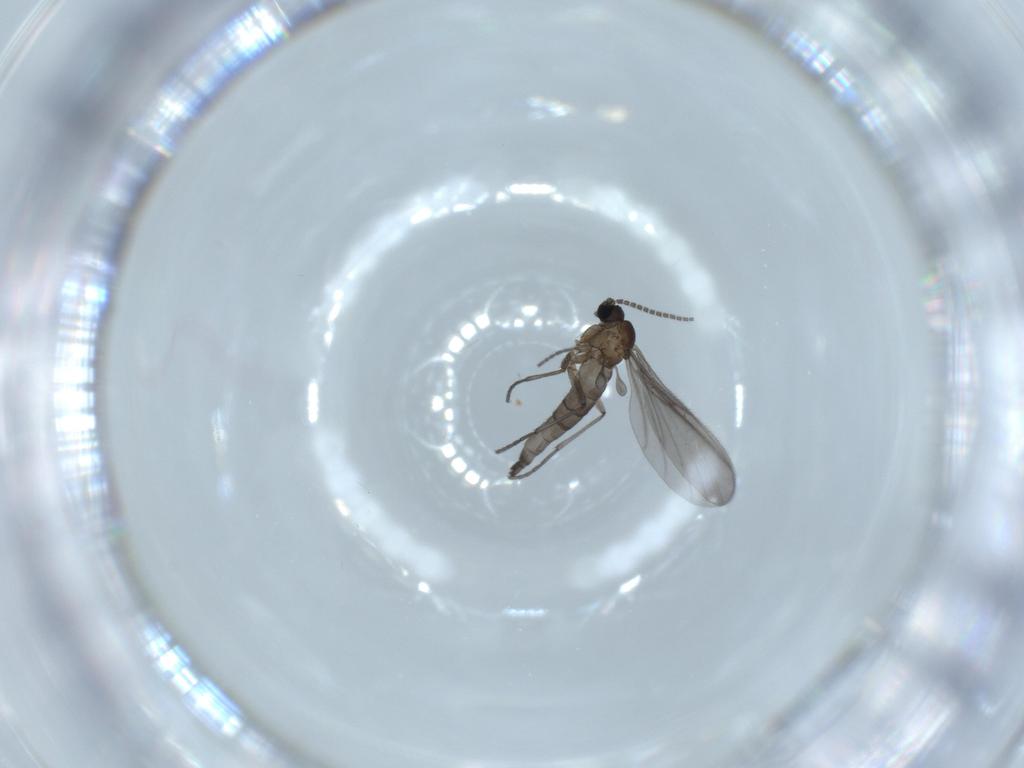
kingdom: Animalia
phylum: Arthropoda
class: Insecta
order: Diptera
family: Sciaridae
